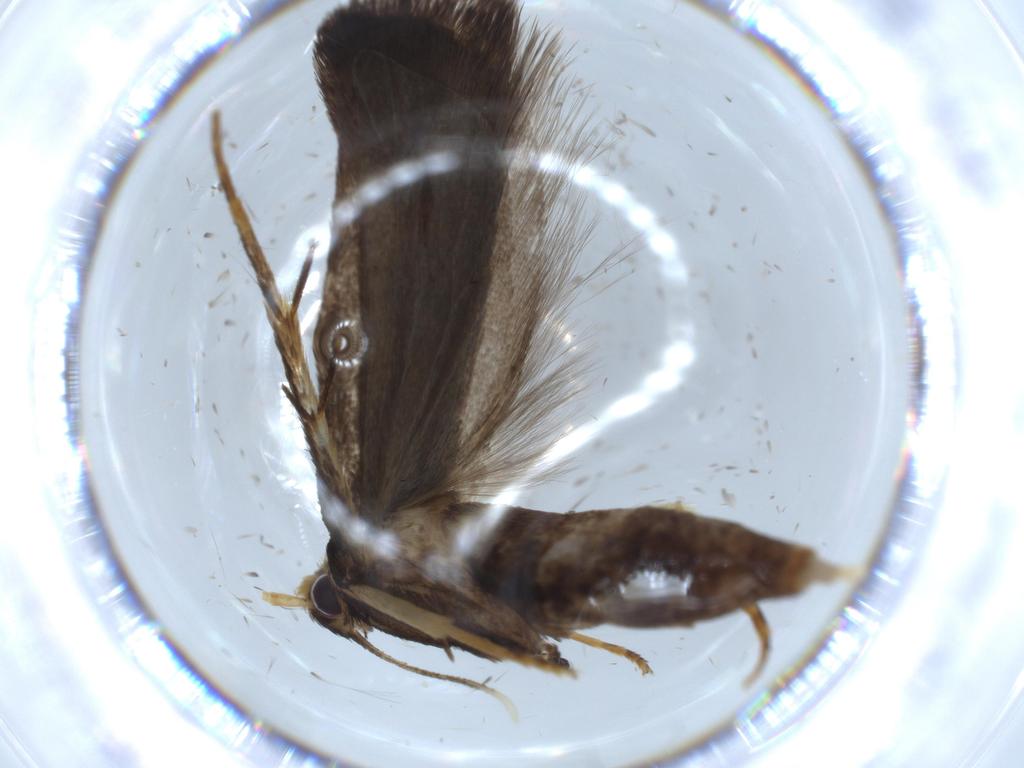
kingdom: Animalia
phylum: Arthropoda
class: Insecta
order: Lepidoptera
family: Lecithoceridae
